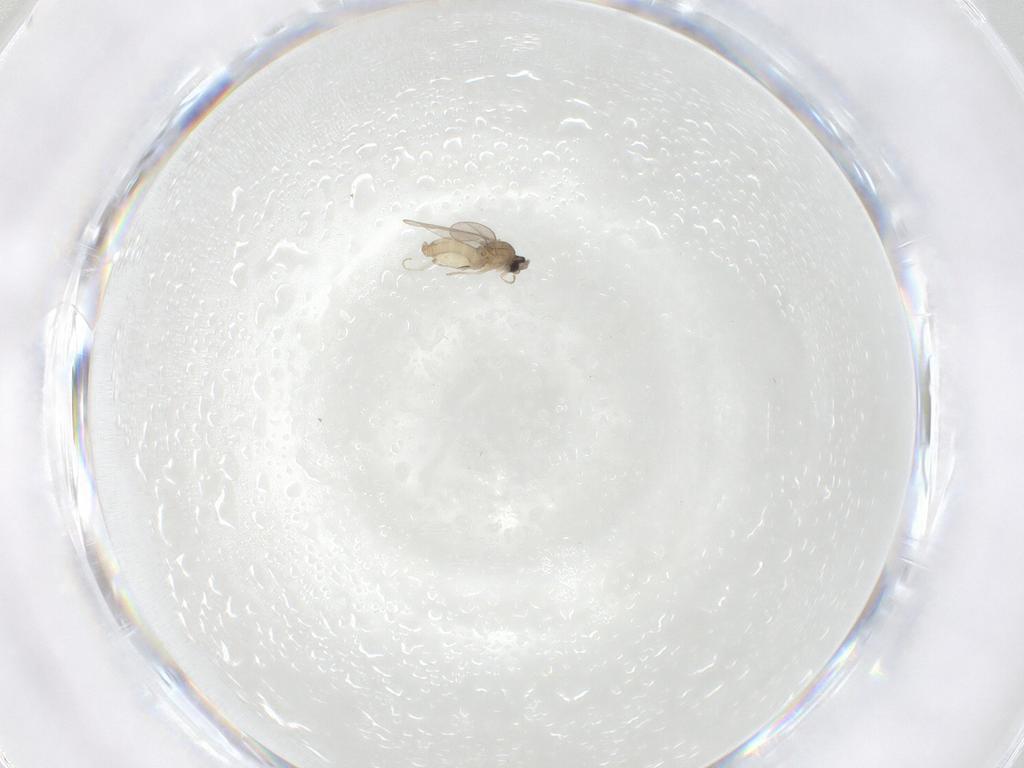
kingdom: Animalia
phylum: Arthropoda
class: Insecta
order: Diptera
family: Cecidomyiidae
